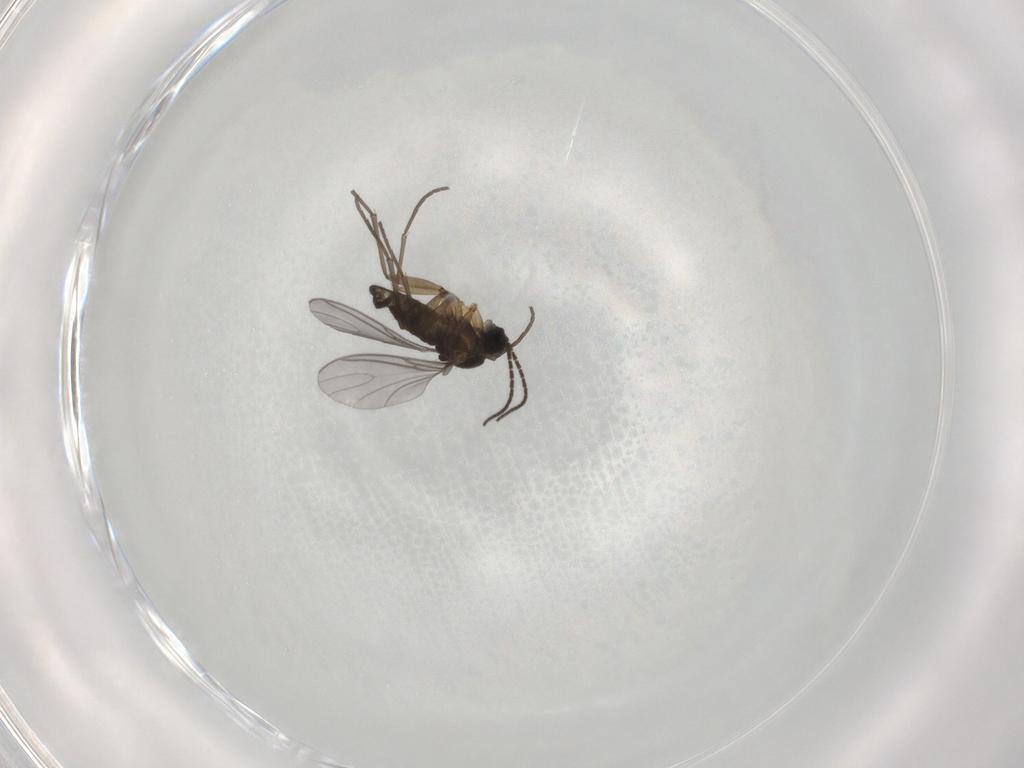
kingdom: Animalia
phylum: Arthropoda
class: Insecta
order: Diptera
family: Sciaridae
